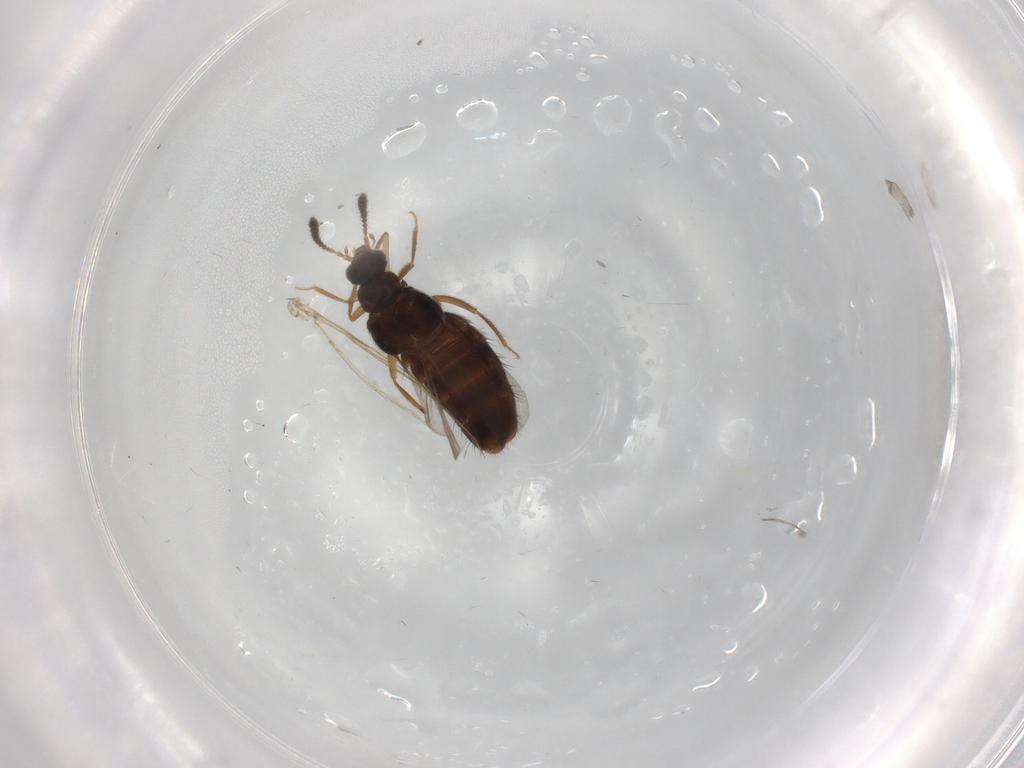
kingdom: Animalia
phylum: Arthropoda
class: Insecta
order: Coleoptera
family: Staphylinidae
